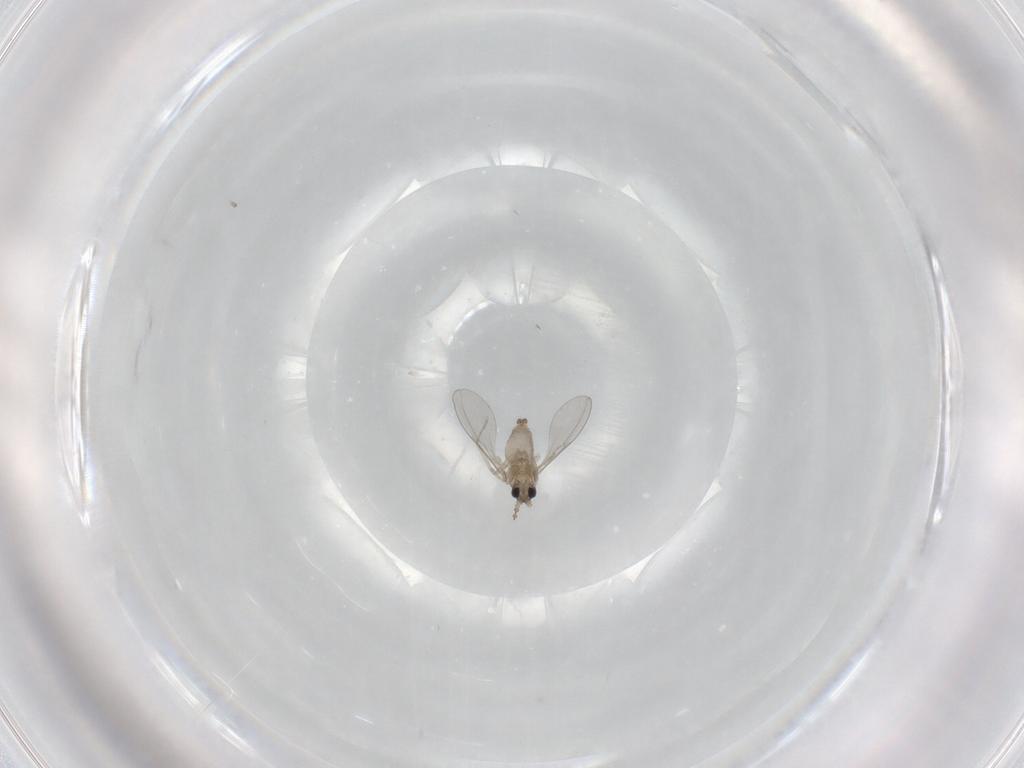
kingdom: Animalia
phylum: Arthropoda
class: Insecta
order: Diptera
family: Cecidomyiidae
